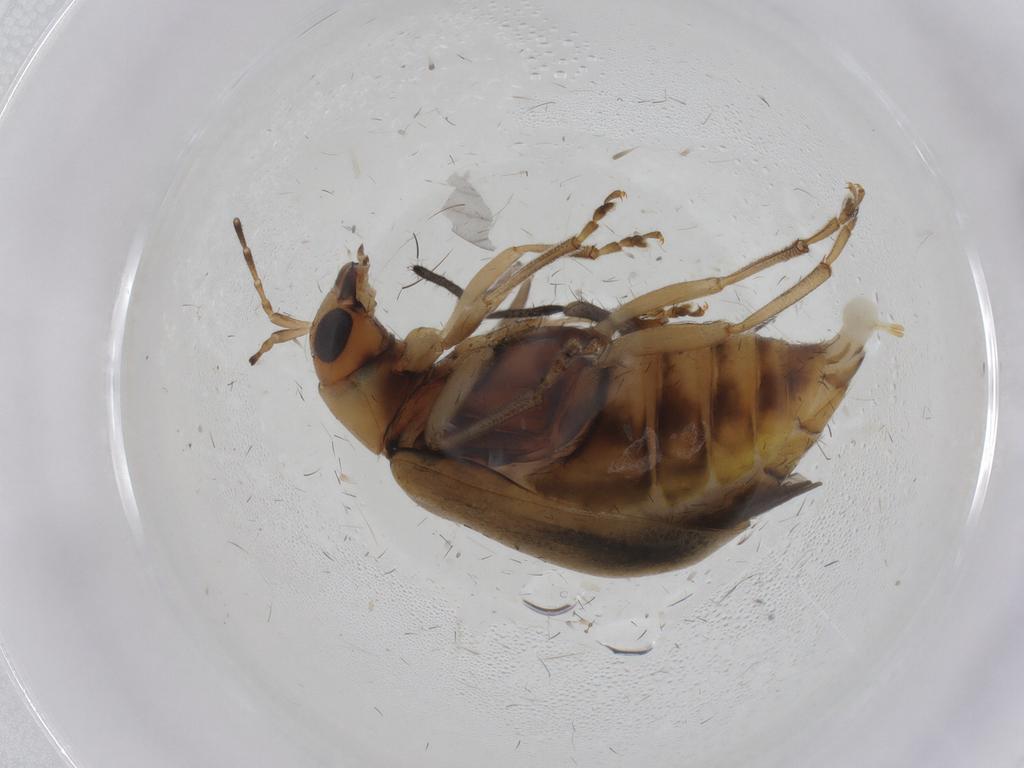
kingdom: Animalia
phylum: Arthropoda
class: Insecta
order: Coleoptera
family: Chrysomelidae
